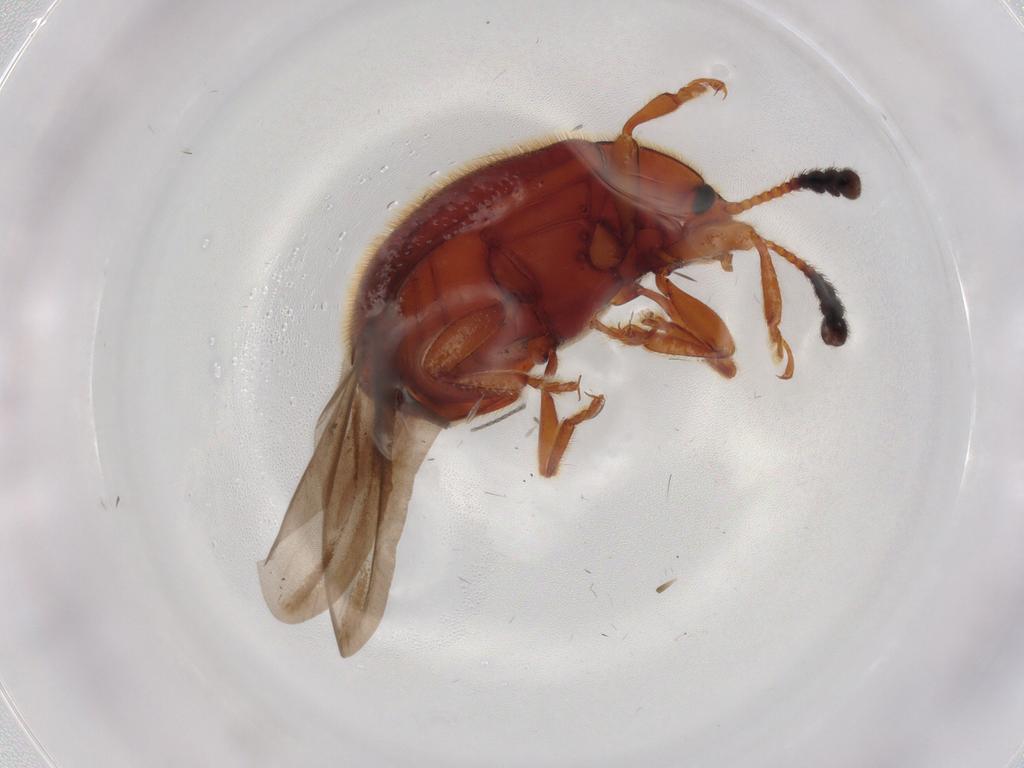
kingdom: Animalia
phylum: Arthropoda
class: Insecta
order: Coleoptera
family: Endomychidae
